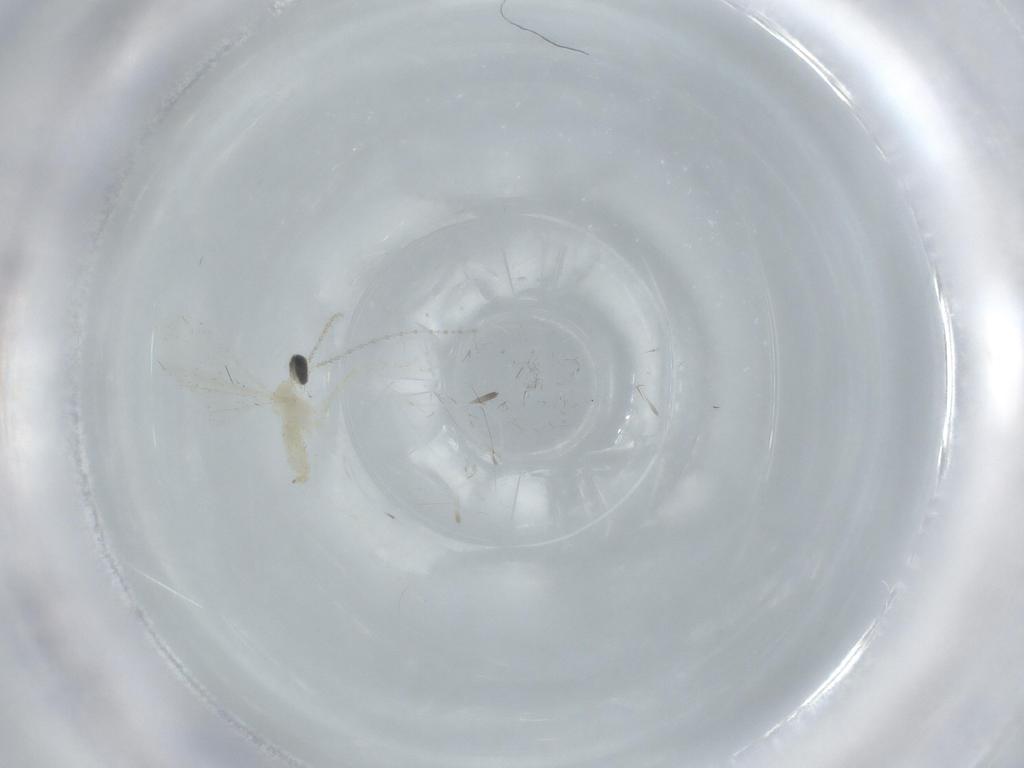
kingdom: Animalia
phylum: Arthropoda
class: Insecta
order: Diptera
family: Cecidomyiidae
